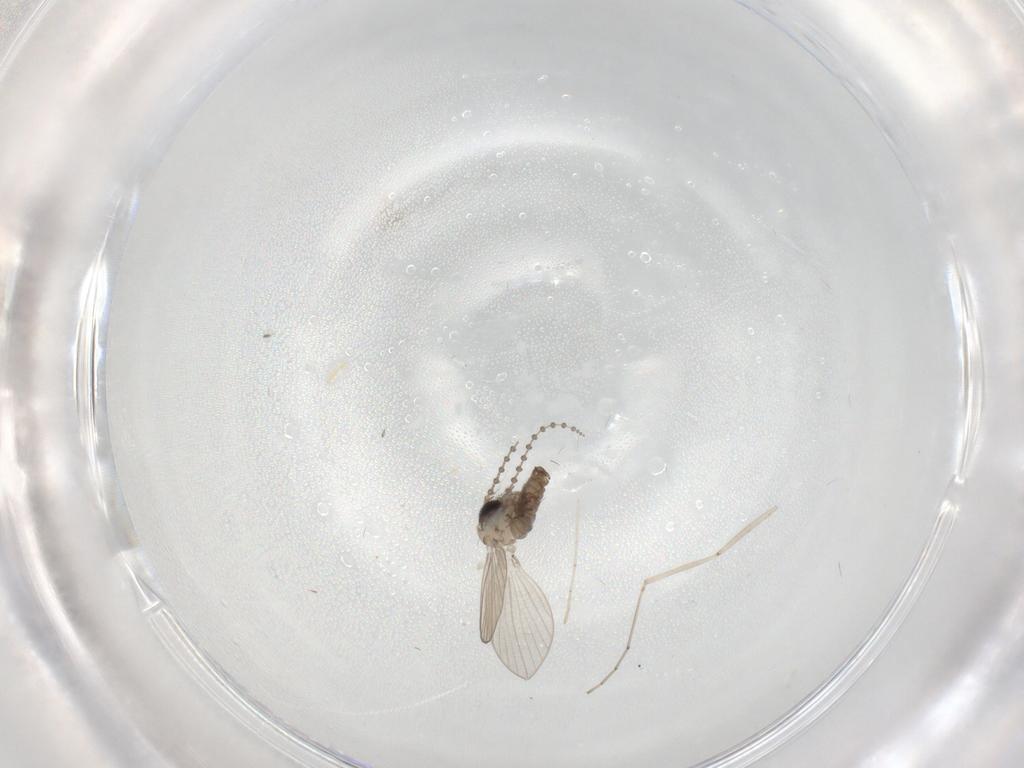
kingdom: Animalia
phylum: Arthropoda
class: Insecta
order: Diptera
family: Psychodidae
